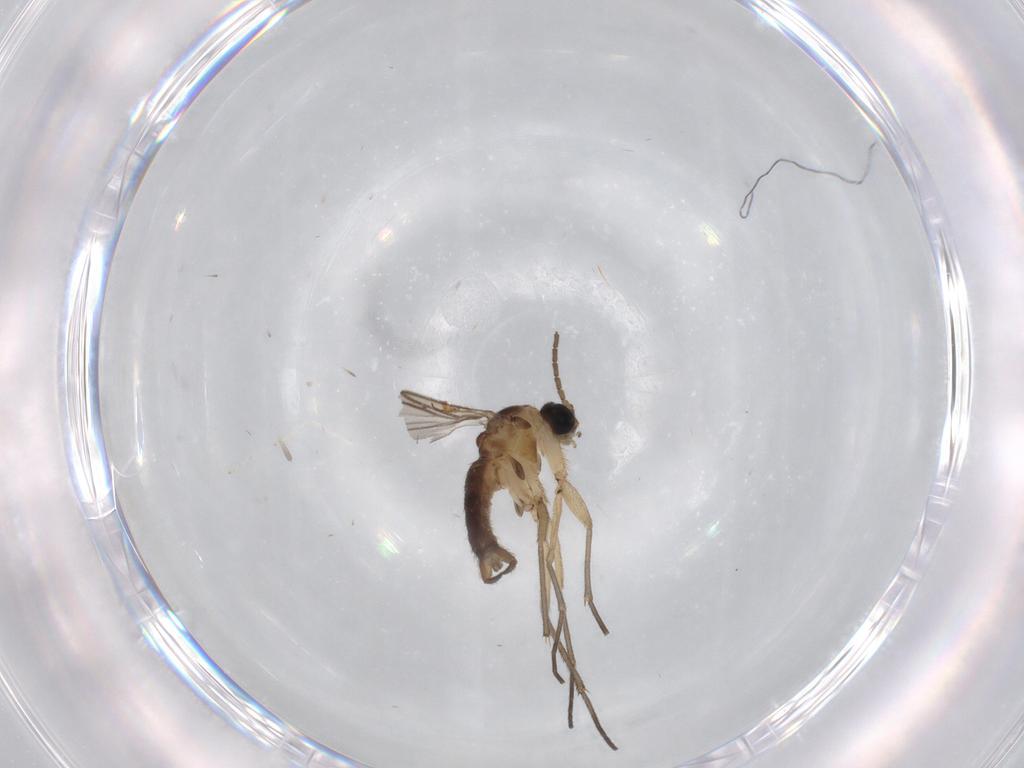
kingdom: Animalia
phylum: Arthropoda
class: Insecta
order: Diptera
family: Sciaridae
